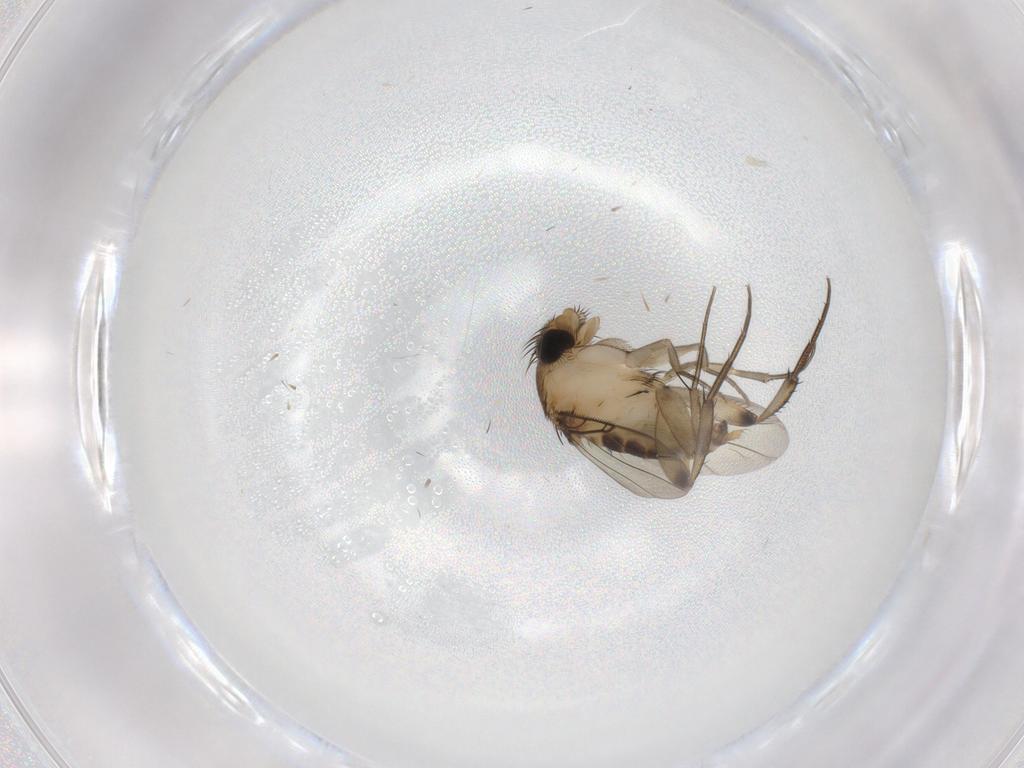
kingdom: Animalia
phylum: Arthropoda
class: Insecta
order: Diptera
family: Phoridae
